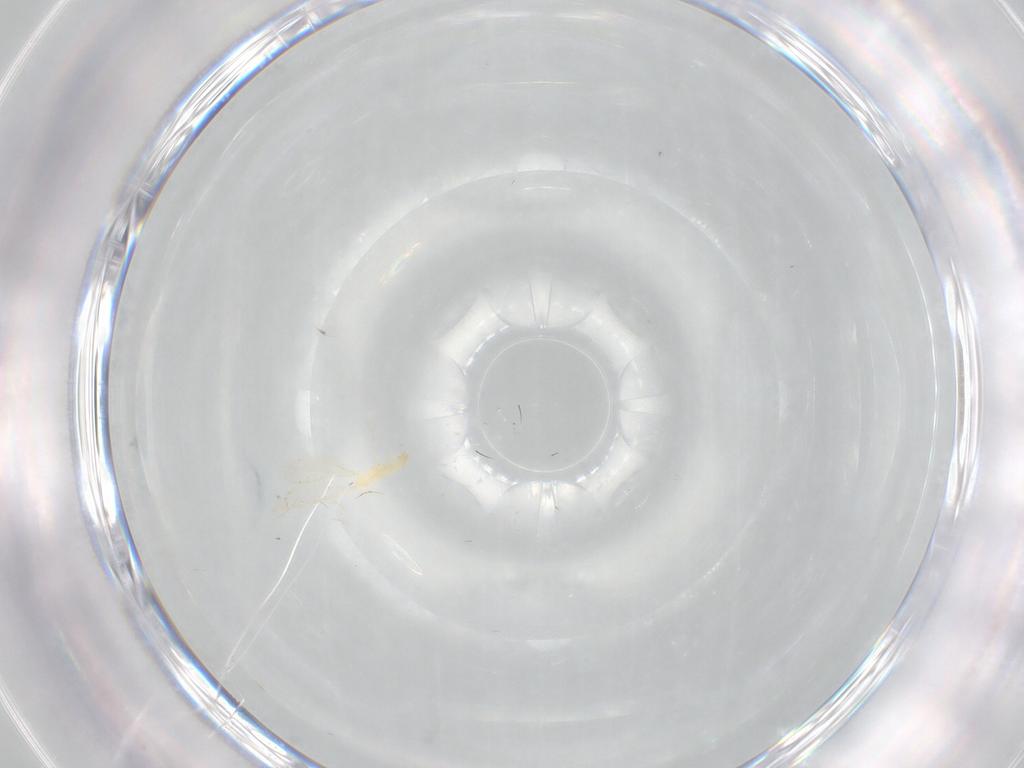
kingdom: Animalia
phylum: Arthropoda
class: Insecta
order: Diptera
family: Cecidomyiidae
